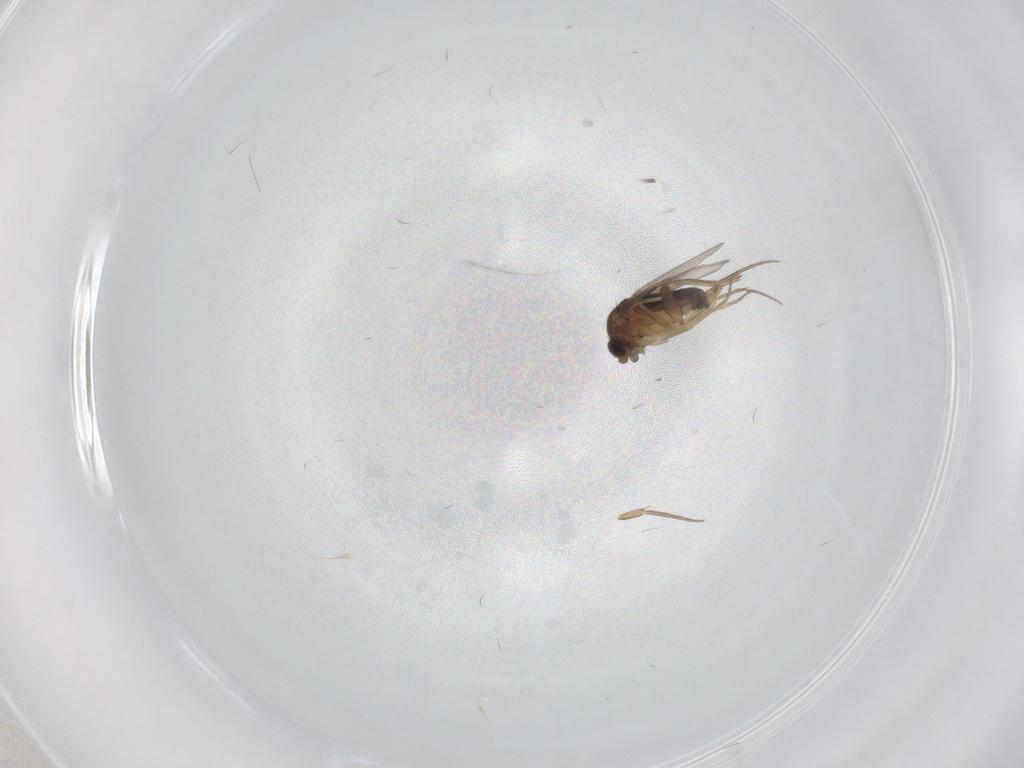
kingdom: Animalia
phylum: Arthropoda
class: Insecta
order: Diptera
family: Phoridae
